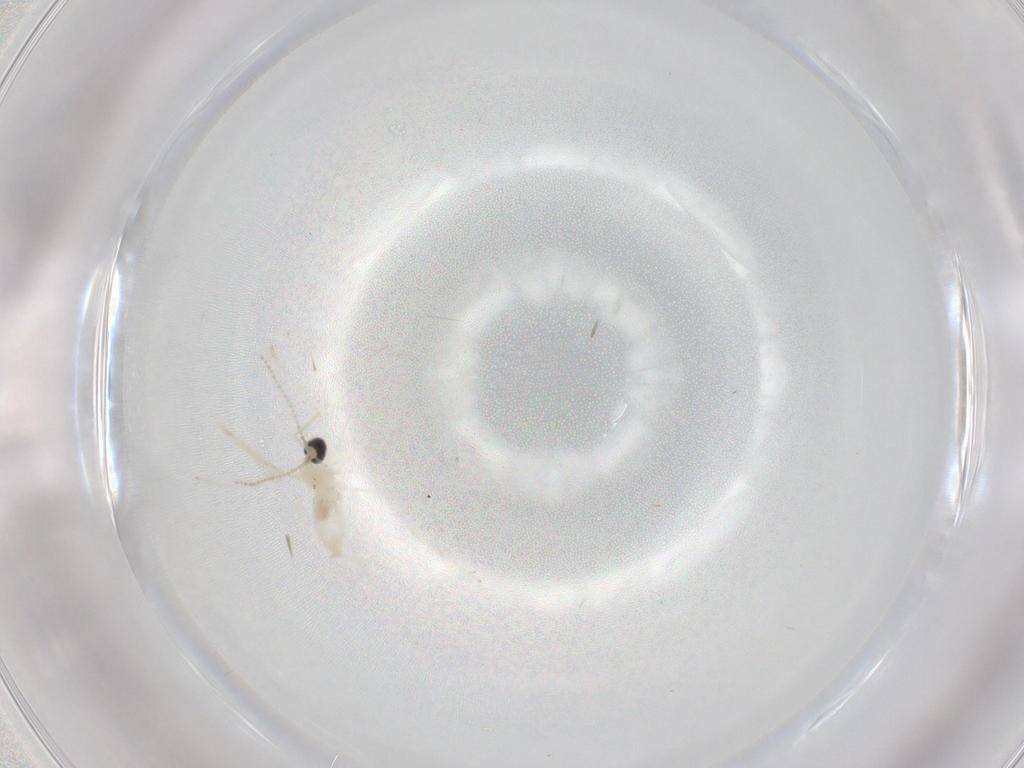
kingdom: Animalia
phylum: Arthropoda
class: Insecta
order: Diptera
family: Cecidomyiidae
